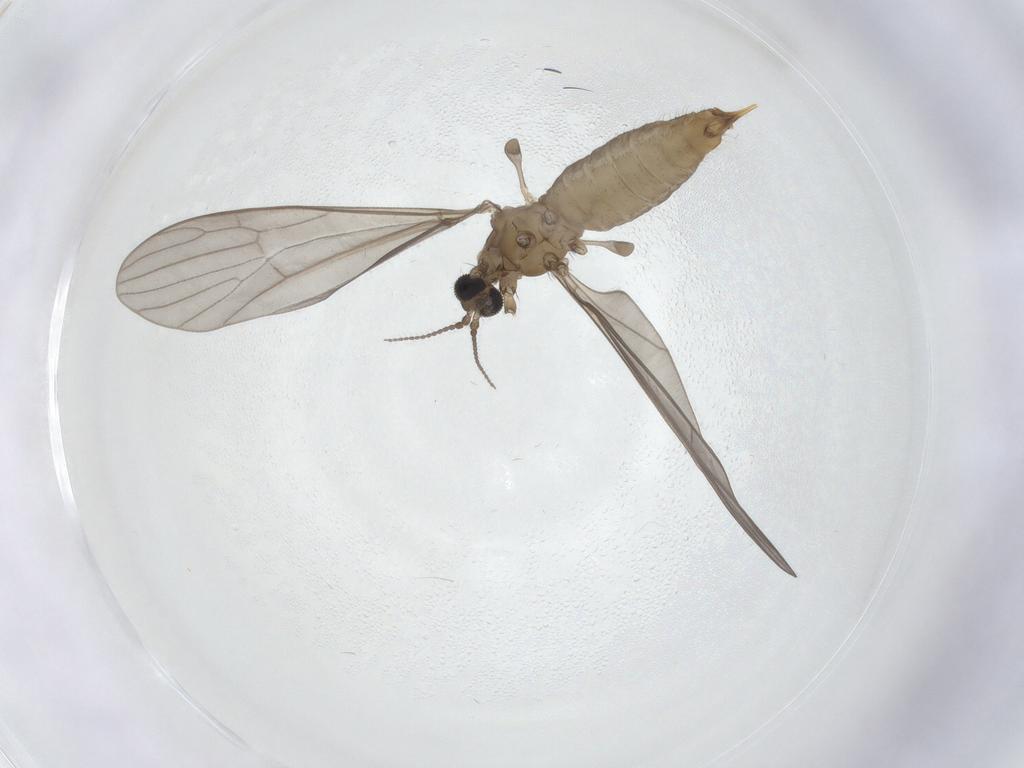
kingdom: Animalia
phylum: Arthropoda
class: Insecta
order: Diptera
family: Limoniidae
